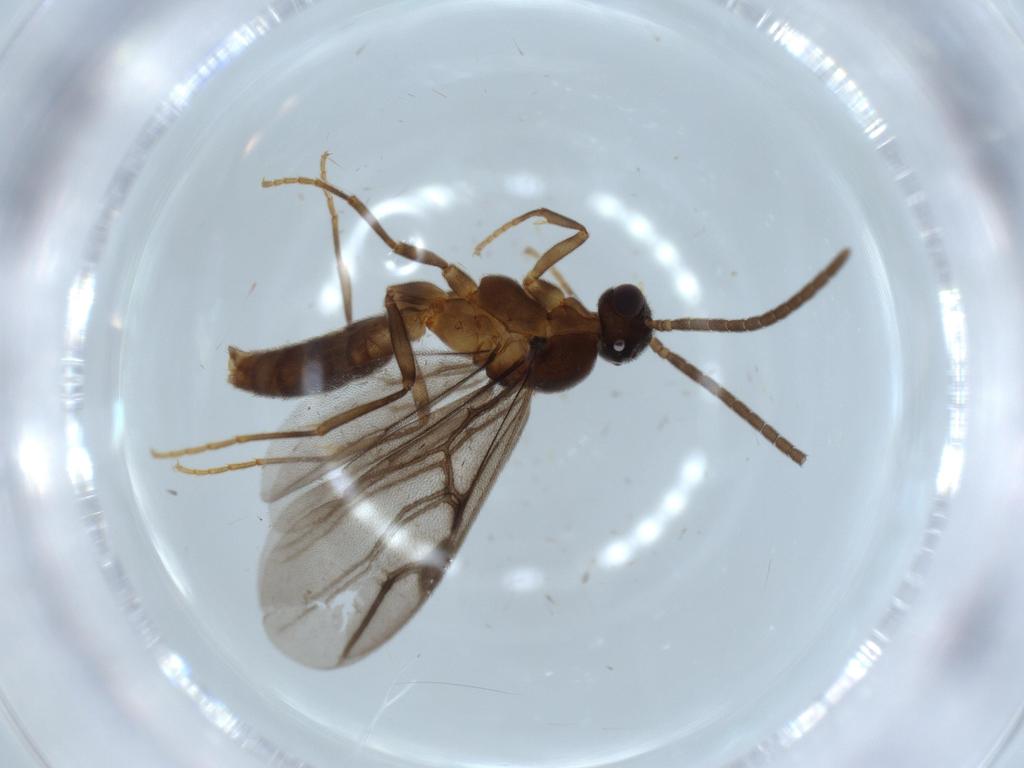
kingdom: Animalia
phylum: Arthropoda
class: Insecta
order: Hymenoptera
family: Formicidae
